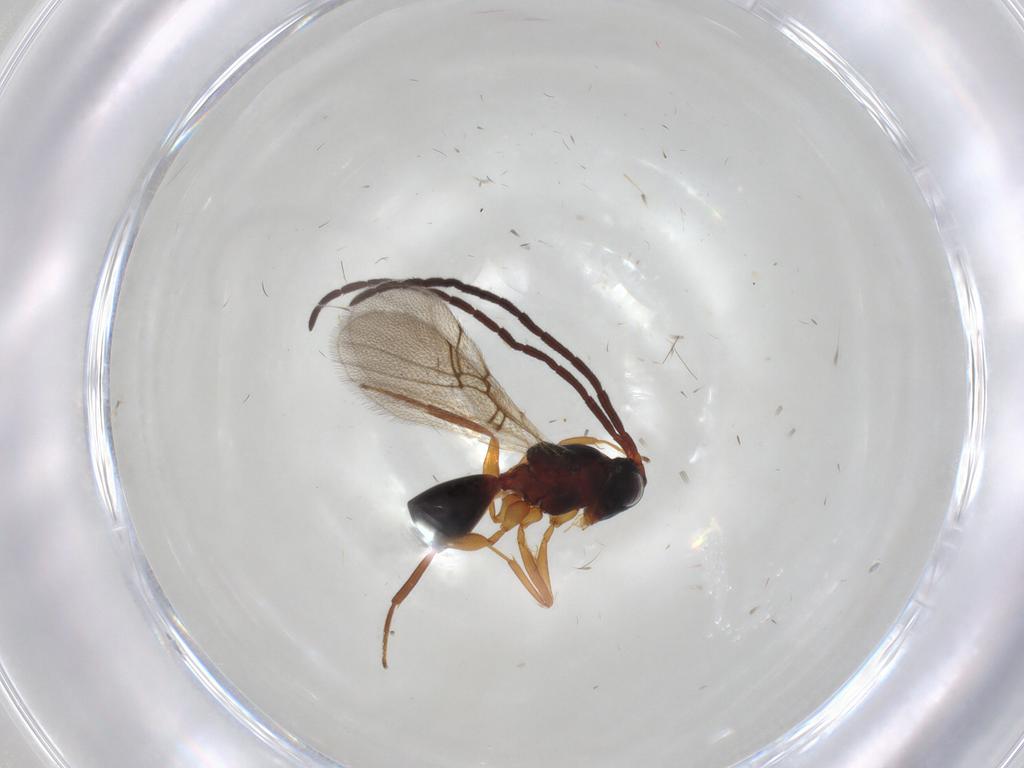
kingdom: Animalia
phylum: Arthropoda
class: Insecta
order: Hymenoptera
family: Figitidae
